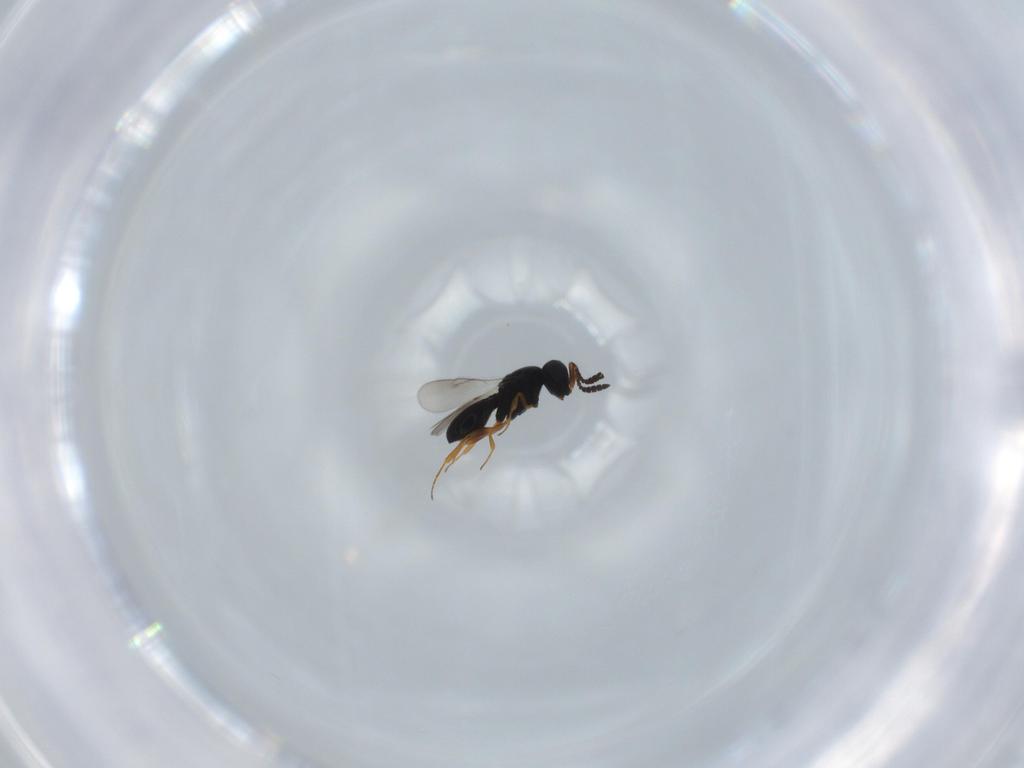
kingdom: Animalia
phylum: Arthropoda
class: Insecta
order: Hymenoptera
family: Scelionidae
